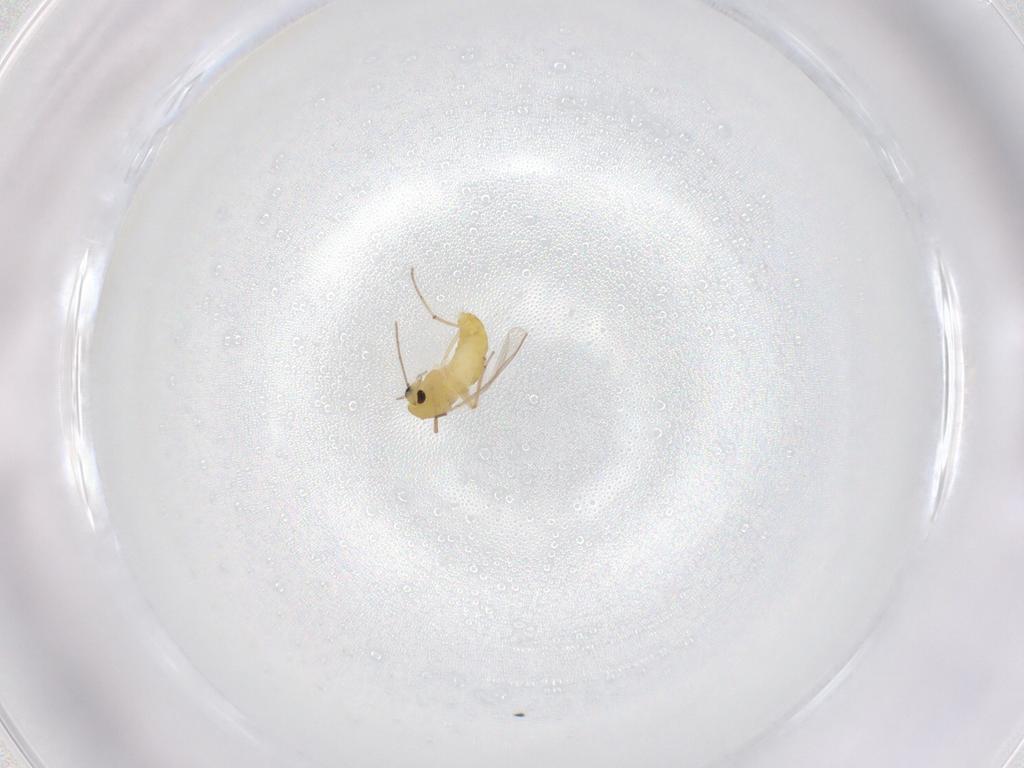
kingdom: Animalia
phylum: Arthropoda
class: Insecta
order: Diptera
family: Chironomidae
